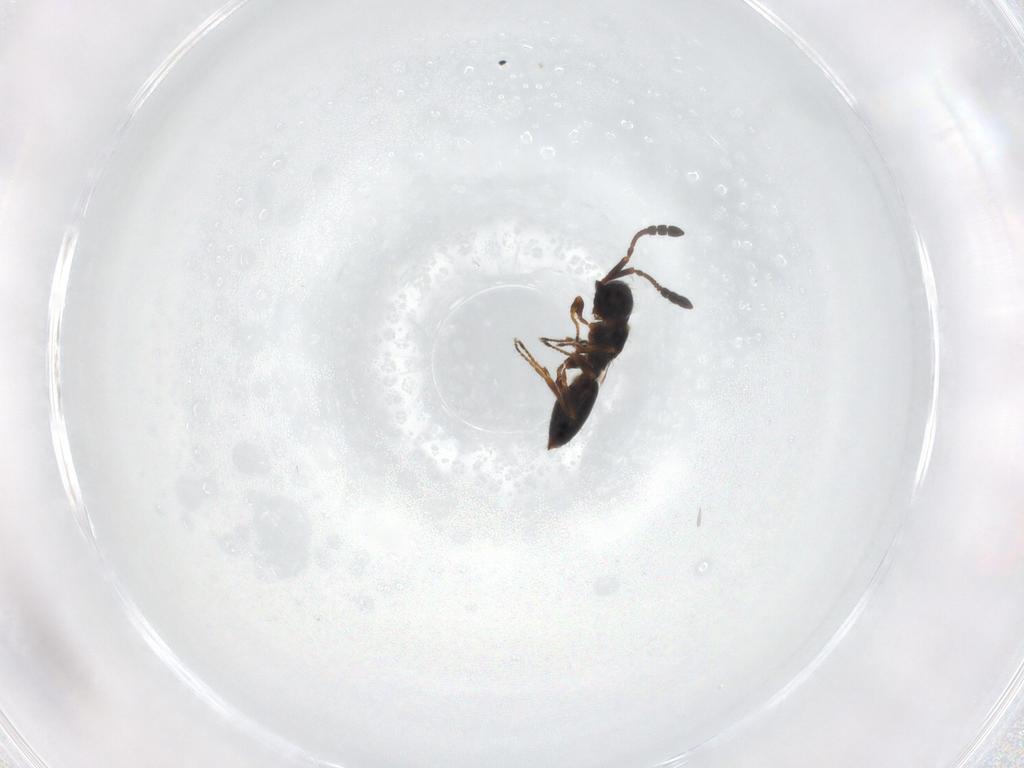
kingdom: Animalia
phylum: Arthropoda
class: Insecta
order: Hymenoptera
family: Diapriidae
